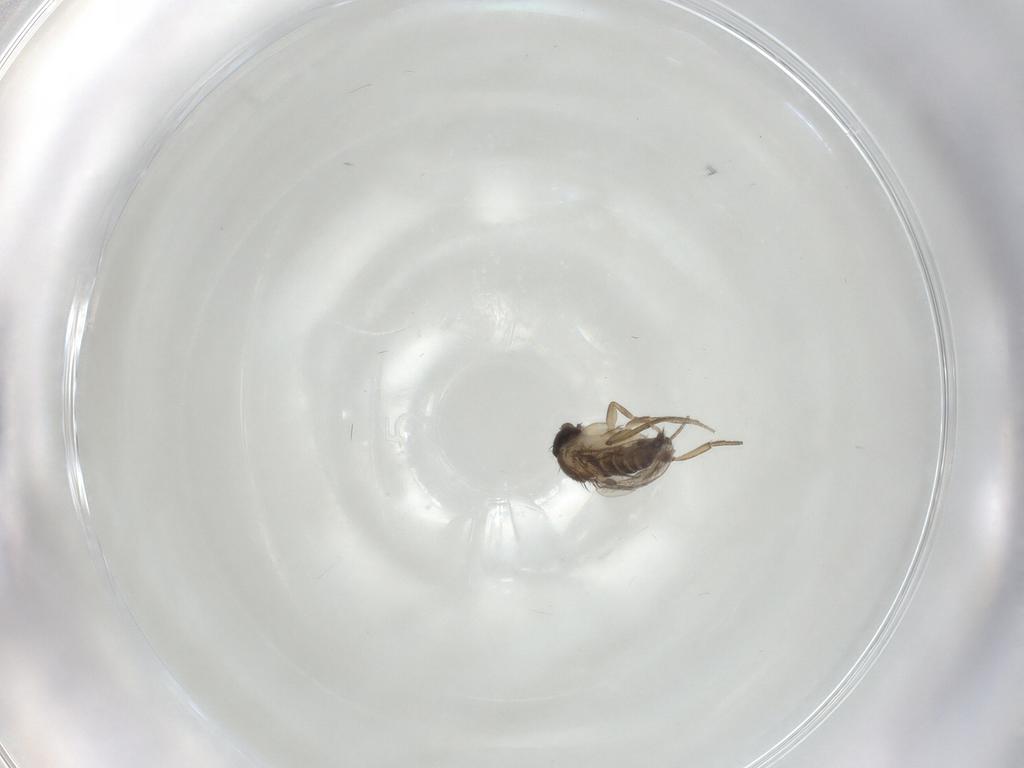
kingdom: Animalia
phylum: Arthropoda
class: Insecta
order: Diptera
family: Phoridae
